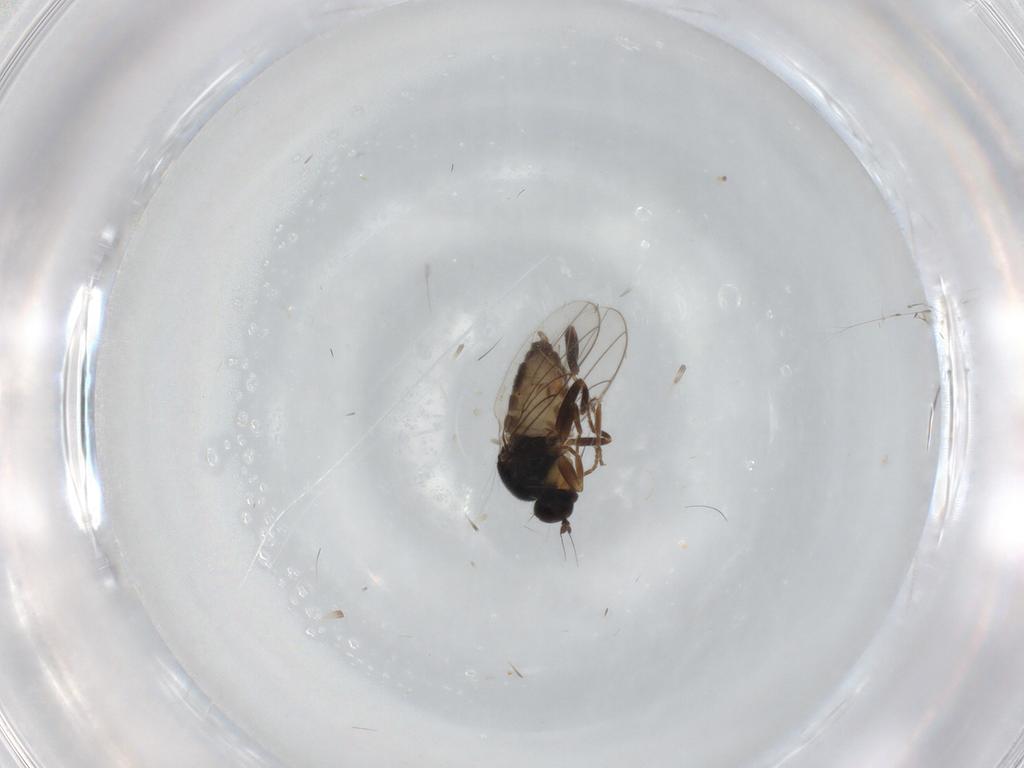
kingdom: Animalia
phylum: Arthropoda
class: Insecta
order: Diptera
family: Hybotidae
